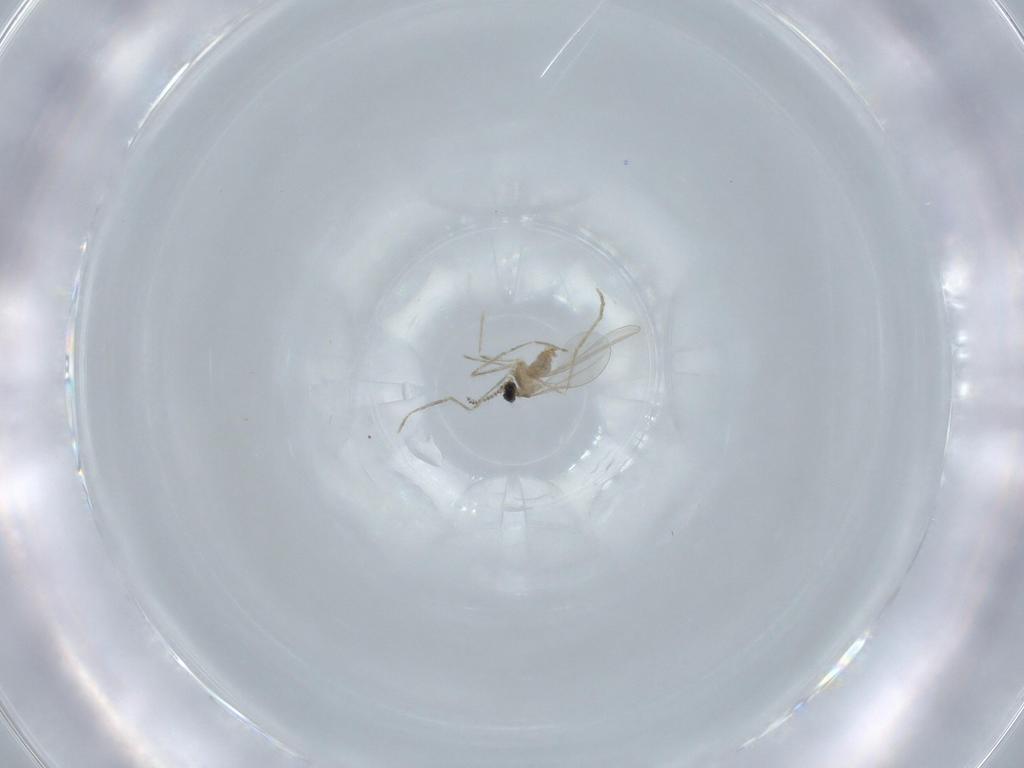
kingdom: Animalia
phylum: Arthropoda
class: Insecta
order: Diptera
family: Cecidomyiidae
